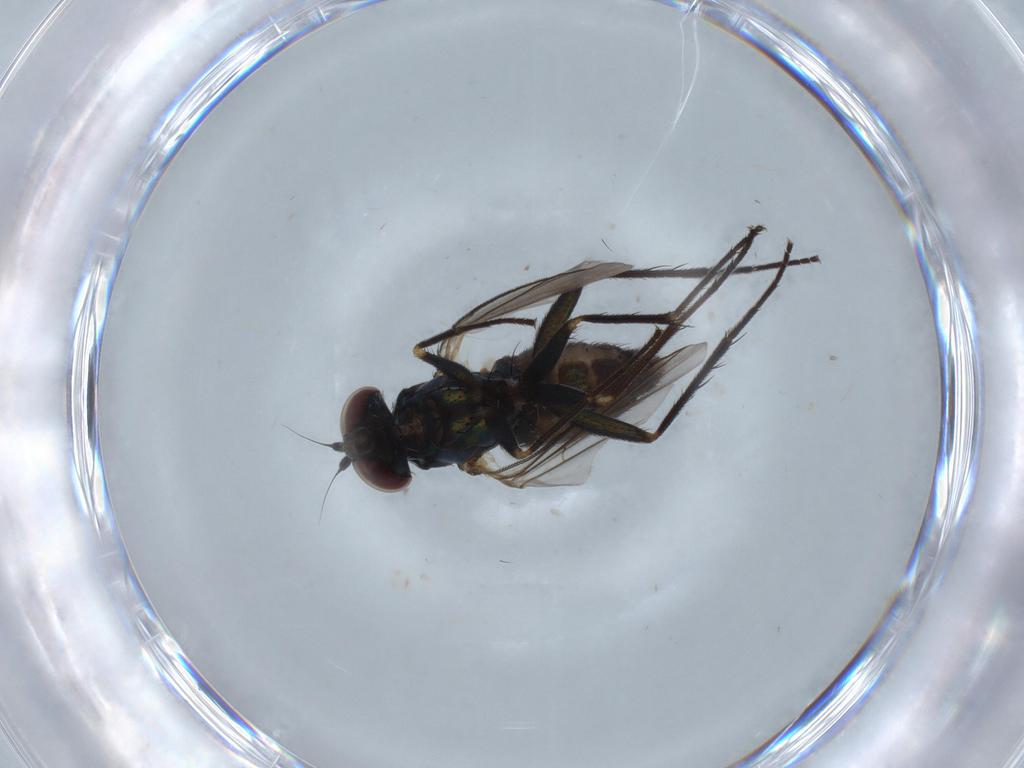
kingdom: Animalia
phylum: Arthropoda
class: Insecta
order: Diptera
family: Dolichopodidae
